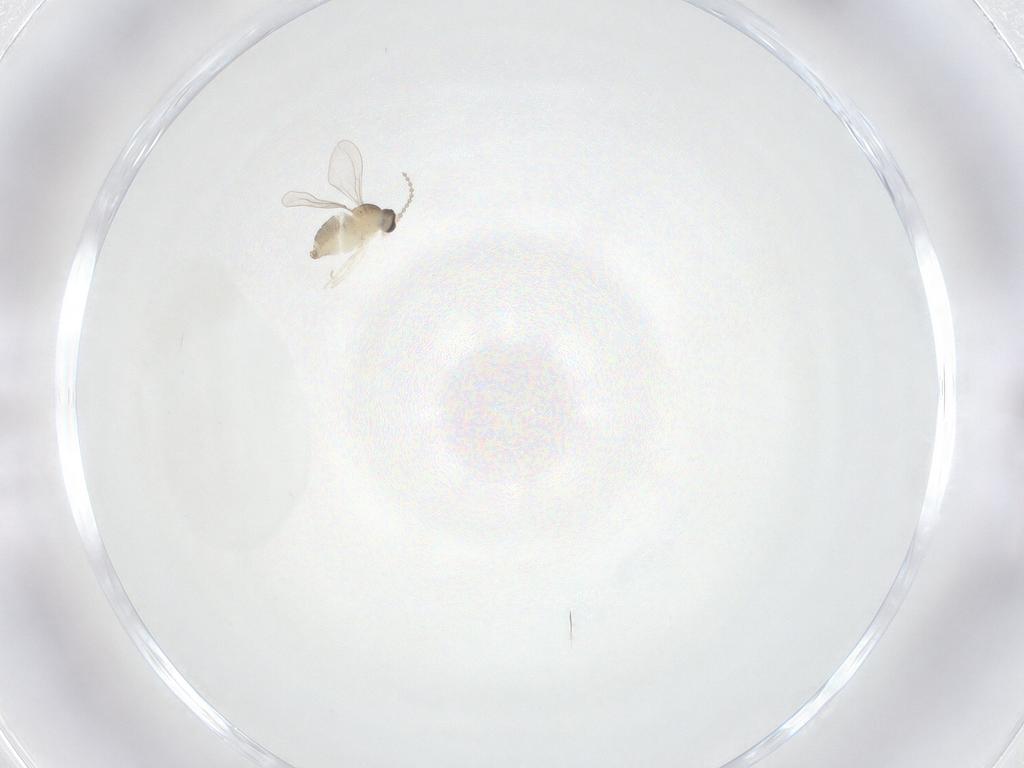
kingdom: Animalia
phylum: Arthropoda
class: Insecta
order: Diptera
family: Cecidomyiidae
